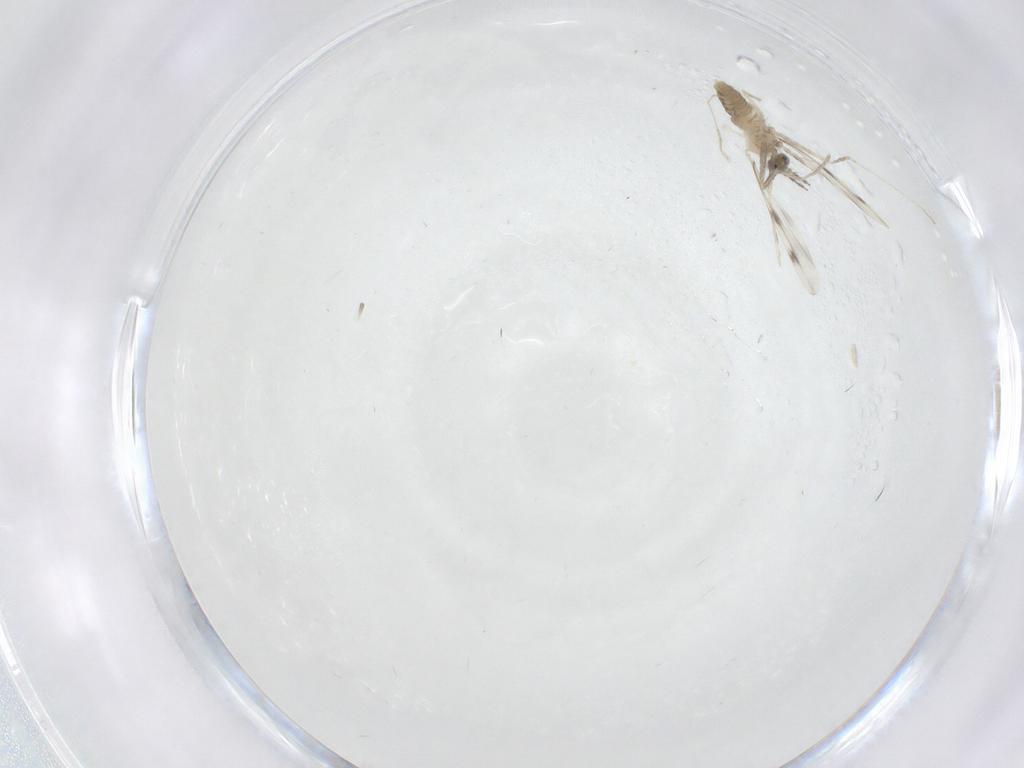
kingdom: Animalia
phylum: Arthropoda
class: Insecta
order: Diptera
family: Cecidomyiidae
